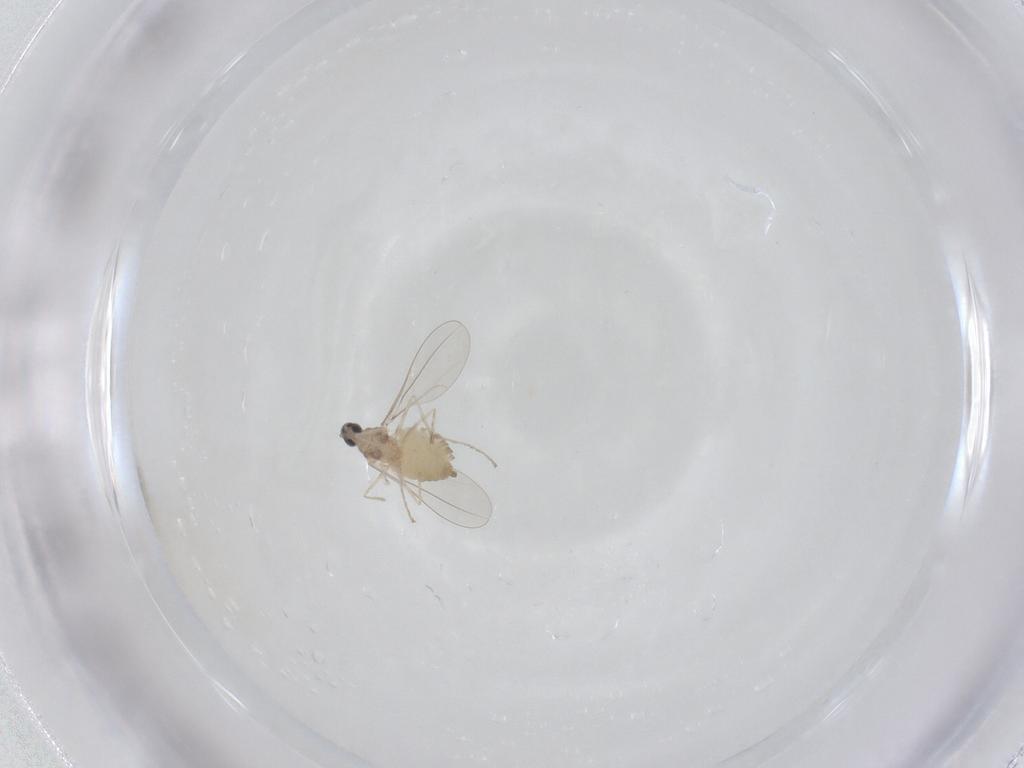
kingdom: Animalia
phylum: Arthropoda
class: Insecta
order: Diptera
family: Cecidomyiidae
